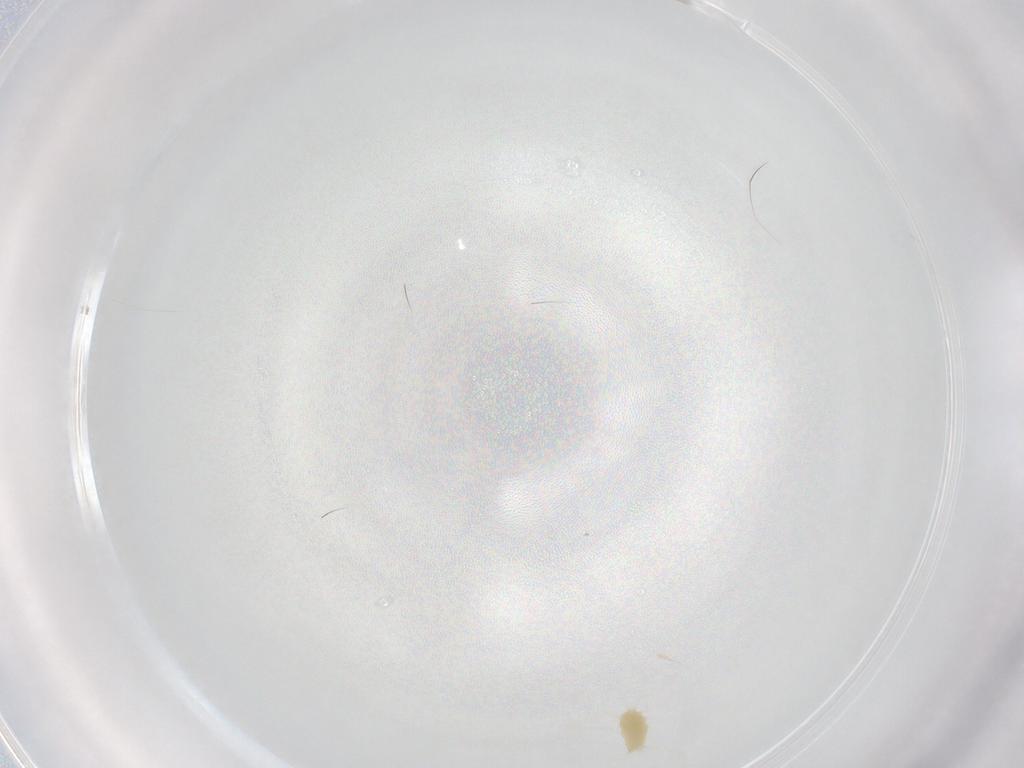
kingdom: Animalia
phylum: Arthropoda
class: Arachnida
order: Trombidiformes
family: Tetranychidae
